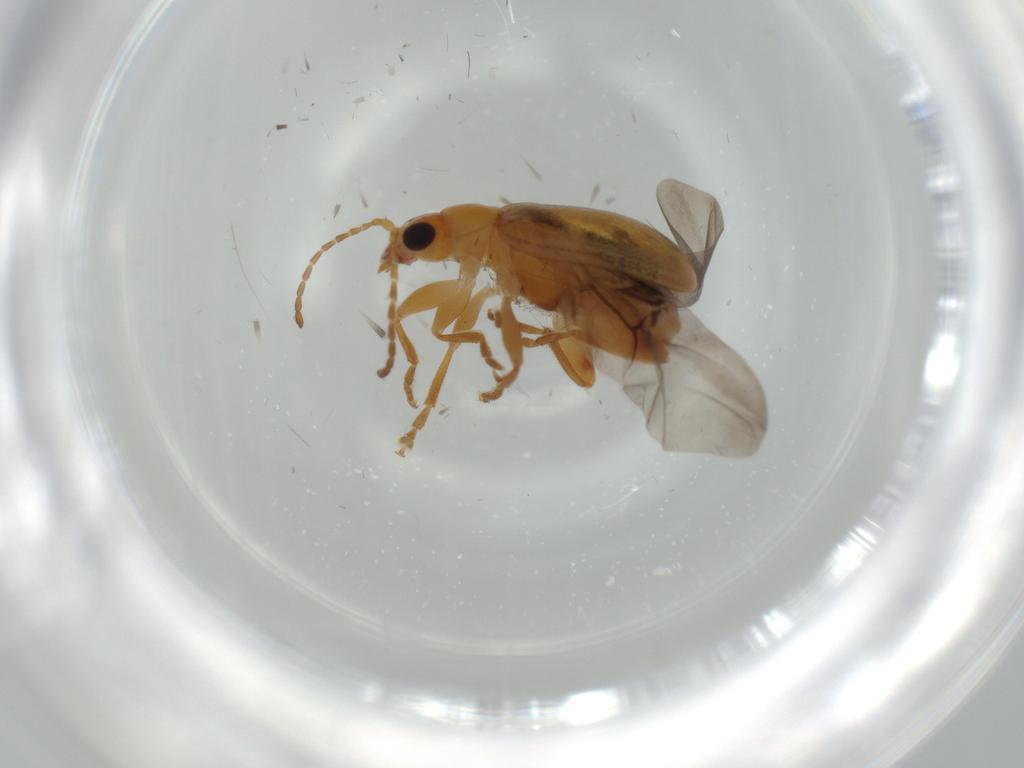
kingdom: Animalia
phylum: Arthropoda
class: Insecta
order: Coleoptera
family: Chrysomelidae
